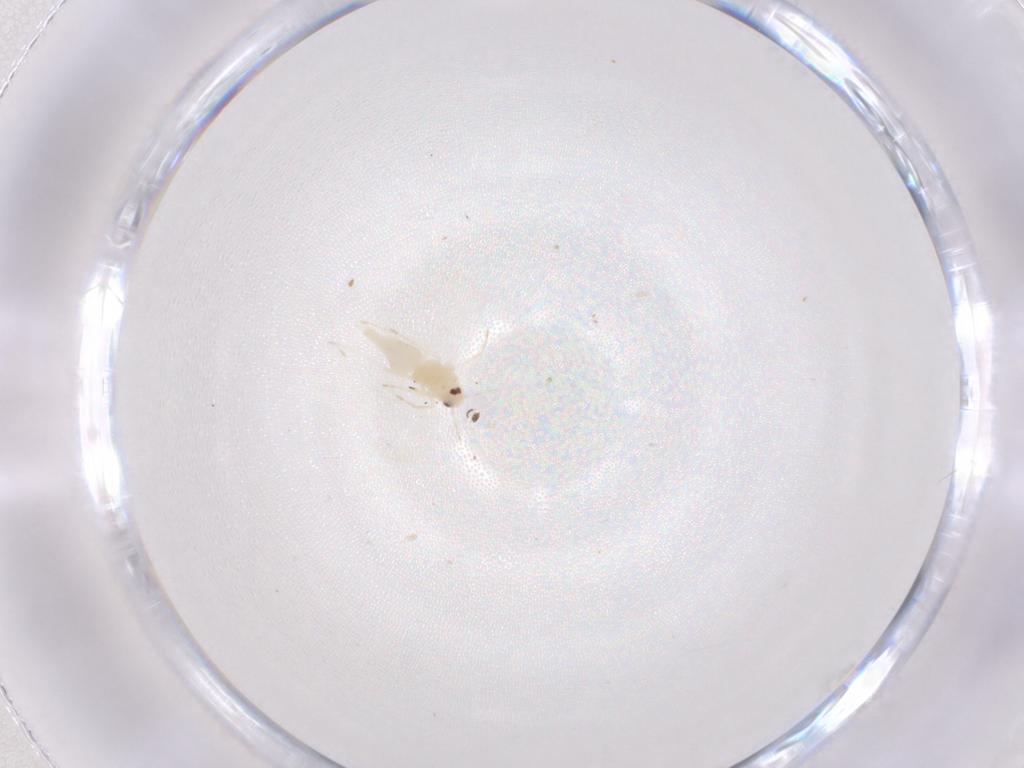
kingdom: Animalia
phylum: Arthropoda
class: Insecta
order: Hemiptera
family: Aleyrodidae
